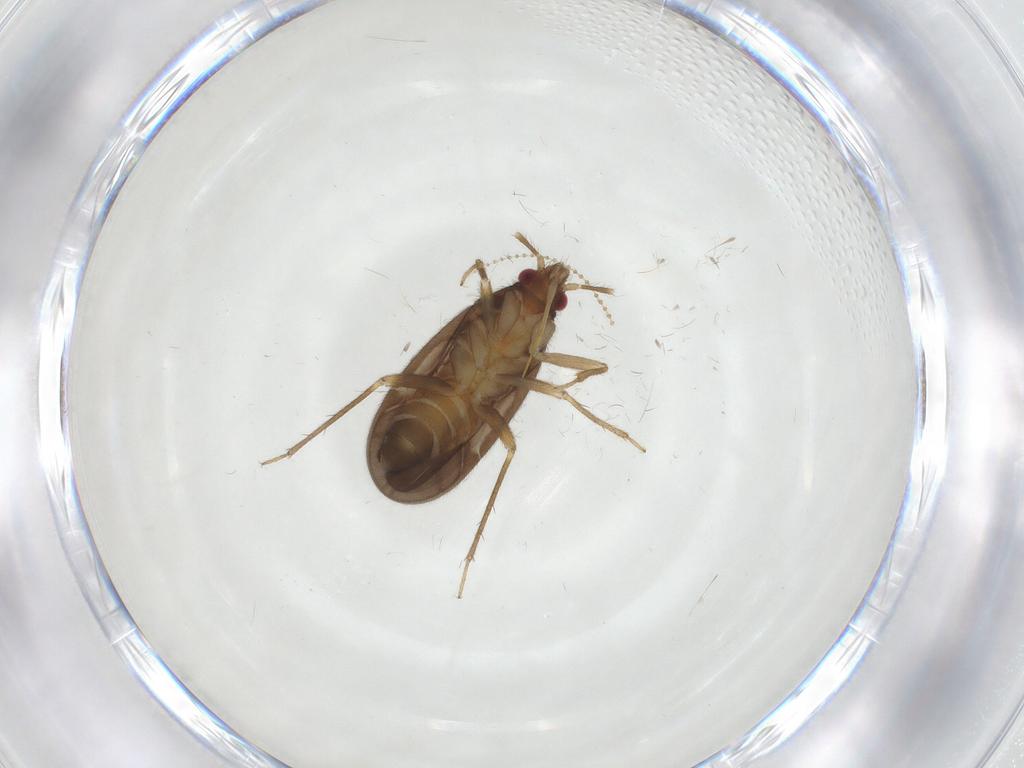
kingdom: Animalia
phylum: Arthropoda
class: Insecta
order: Hemiptera
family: Ceratocombidae
